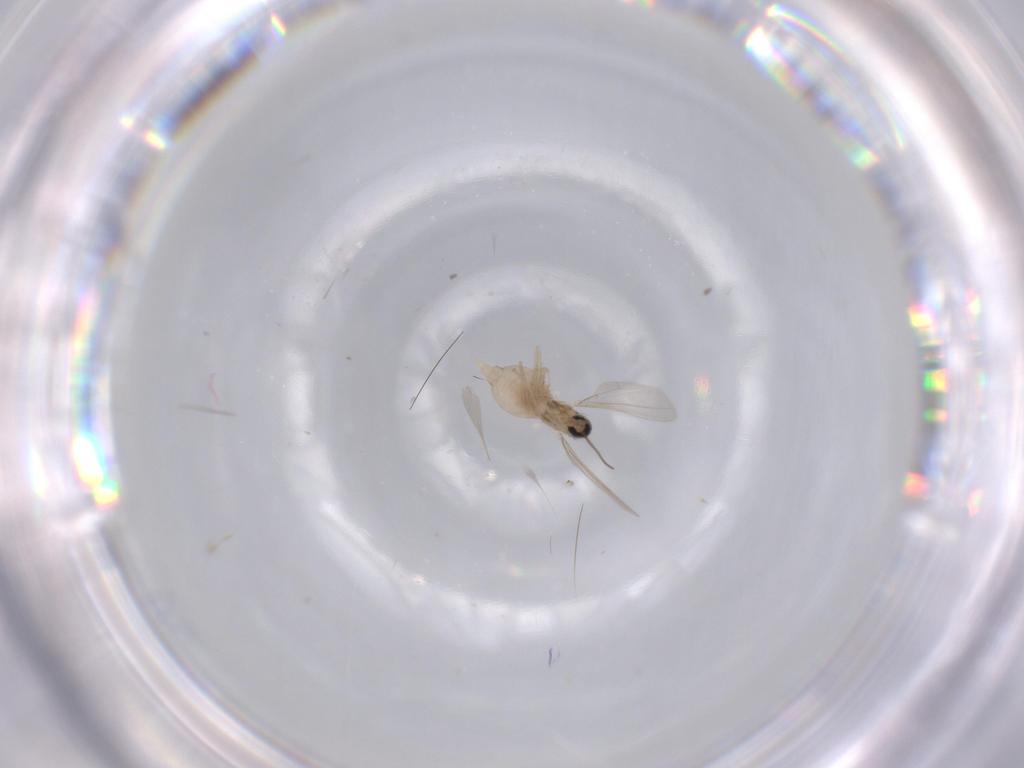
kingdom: Animalia
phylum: Arthropoda
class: Insecta
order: Diptera
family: Cecidomyiidae
